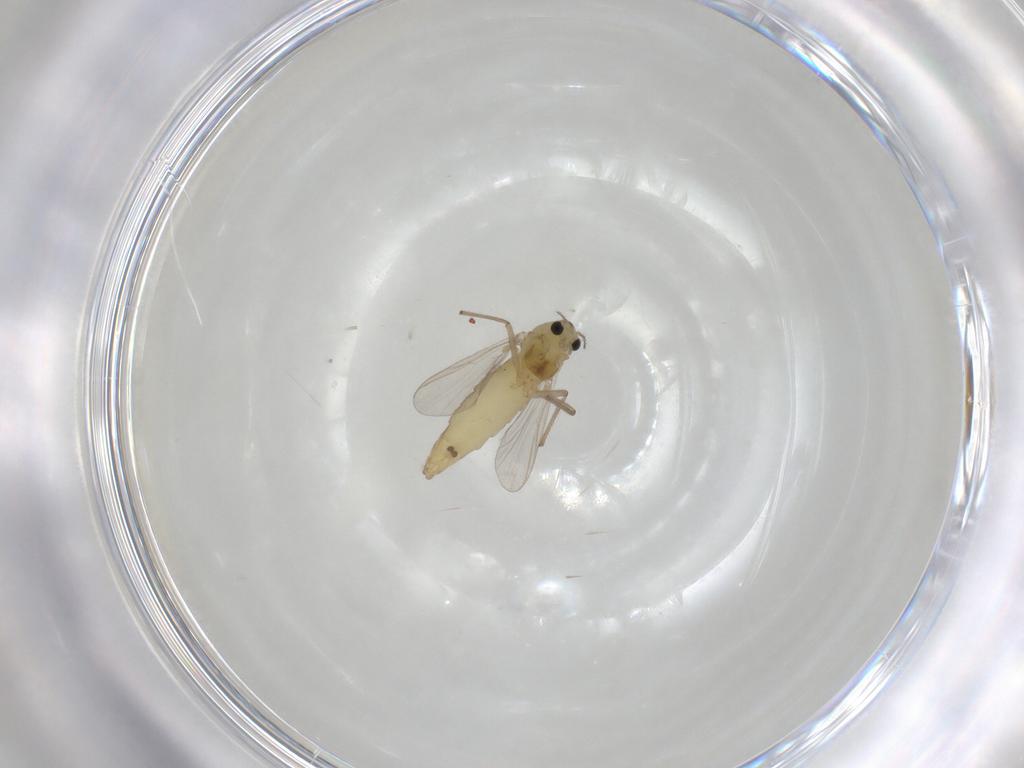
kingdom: Animalia
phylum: Arthropoda
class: Insecta
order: Diptera
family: Chironomidae
